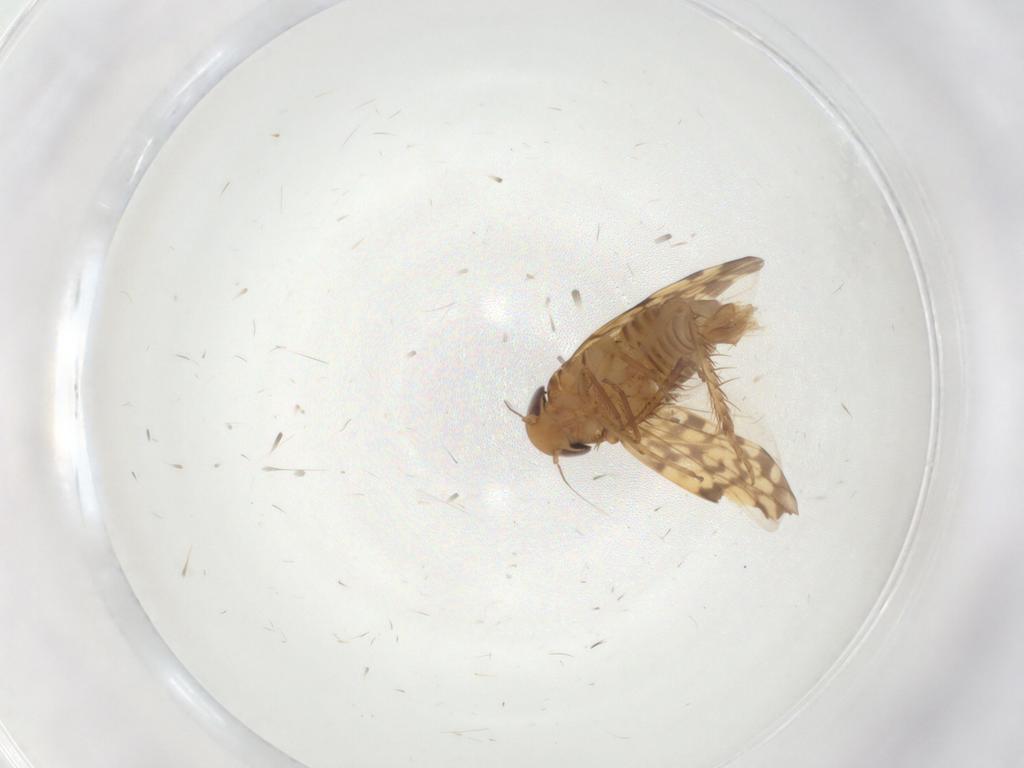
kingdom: Animalia
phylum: Arthropoda
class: Insecta
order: Hemiptera
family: Cicadellidae
